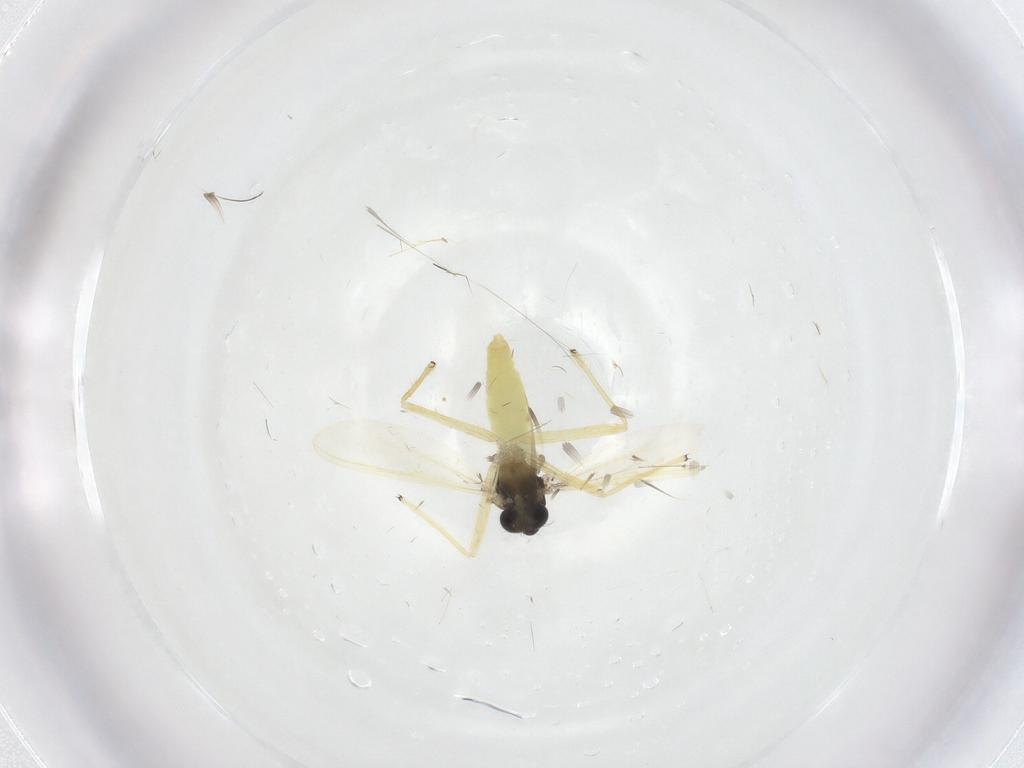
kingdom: Animalia
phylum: Arthropoda
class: Insecta
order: Diptera
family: Chironomidae
